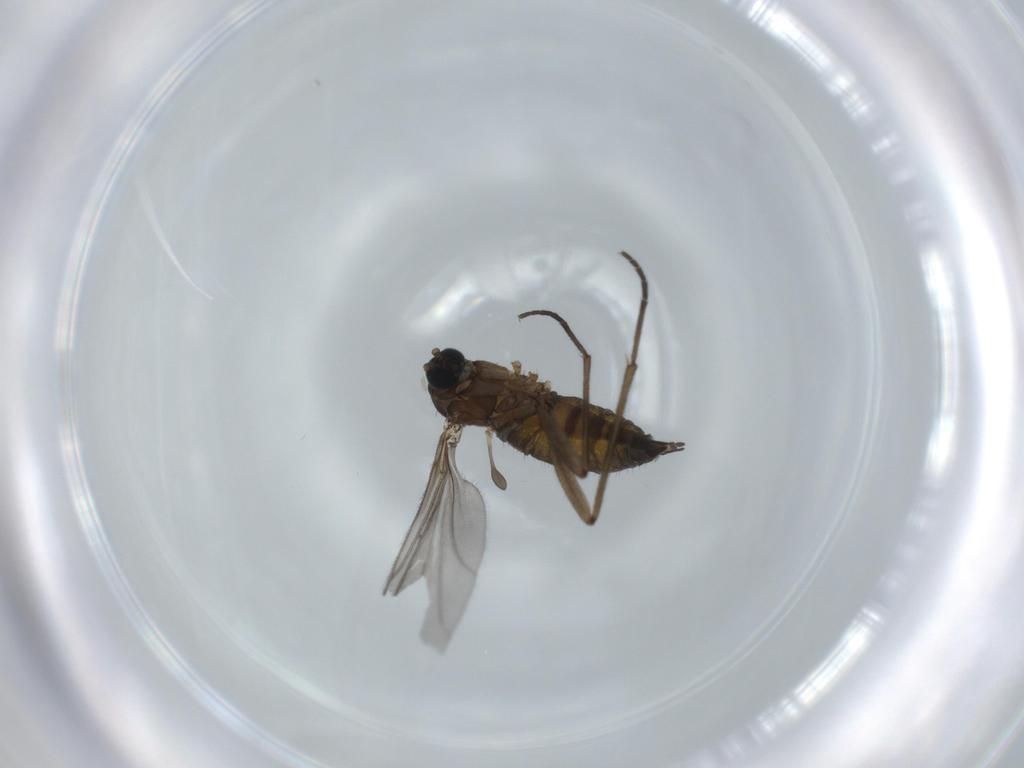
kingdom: Animalia
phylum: Arthropoda
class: Insecta
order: Diptera
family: Sciaridae
